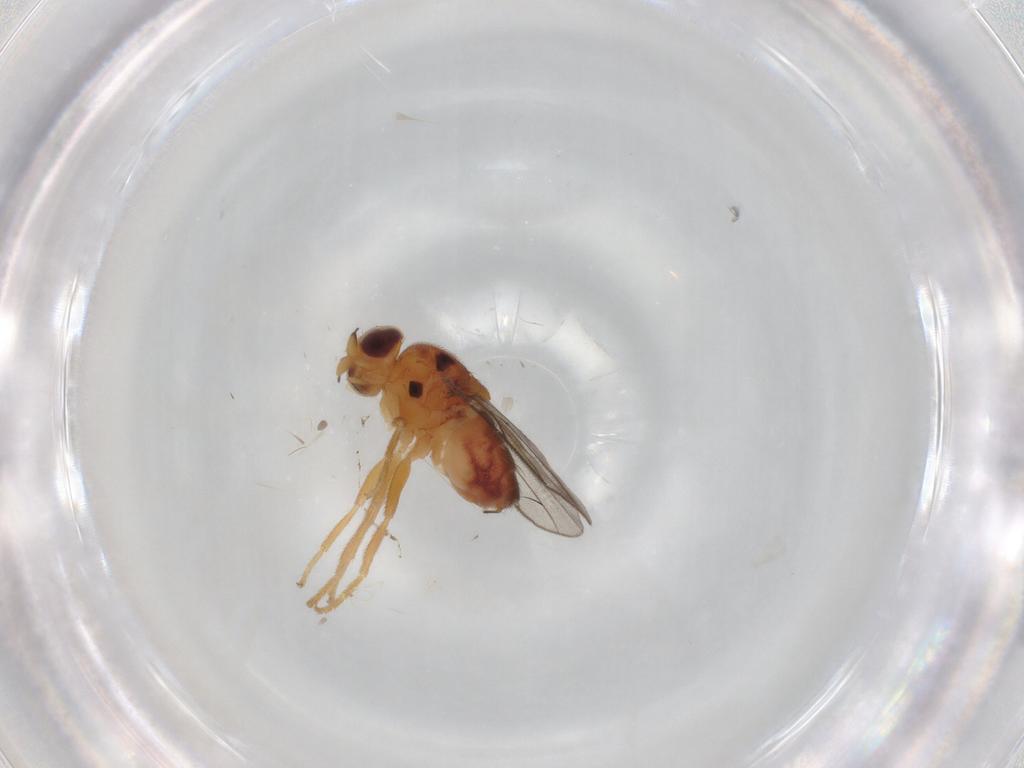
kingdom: Animalia
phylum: Arthropoda
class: Insecta
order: Diptera
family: Chloropidae
